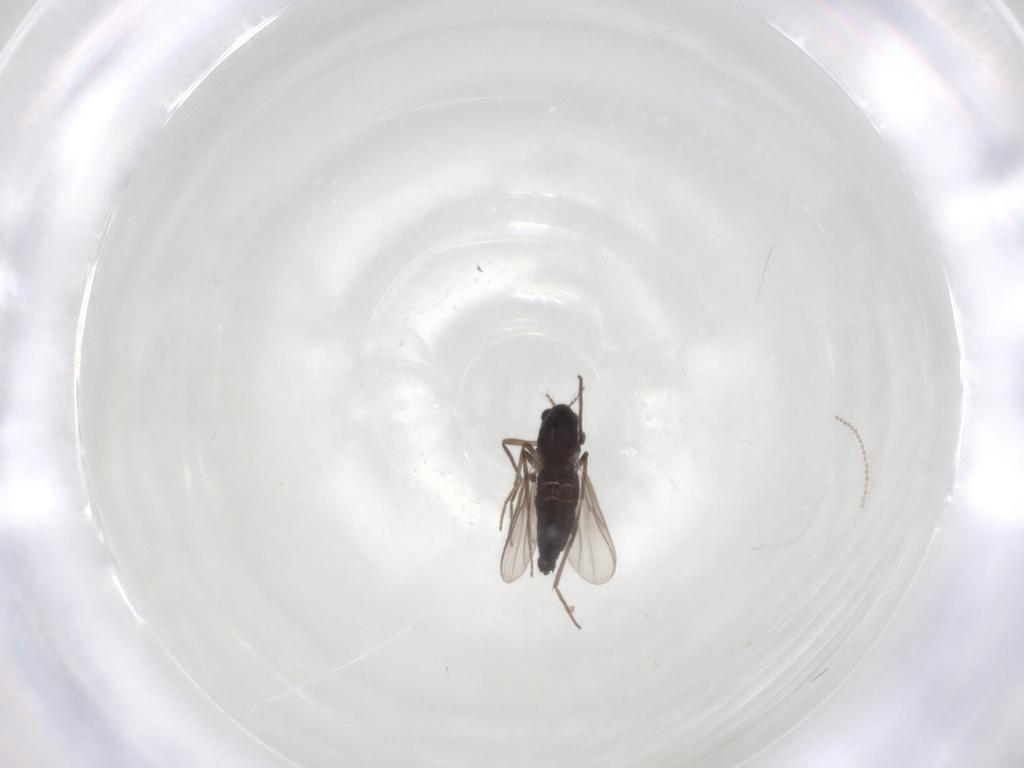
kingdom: Animalia
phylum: Arthropoda
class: Insecta
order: Diptera
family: Chironomidae
